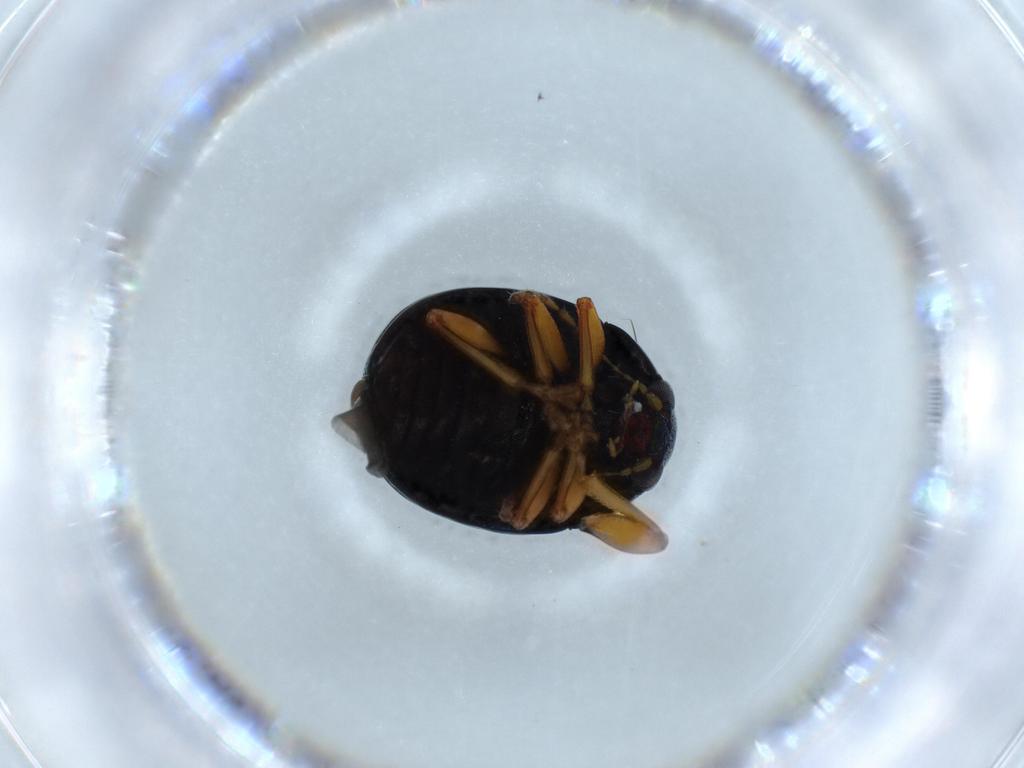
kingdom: Animalia
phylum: Arthropoda
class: Insecta
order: Coleoptera
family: Chrysomelidae
